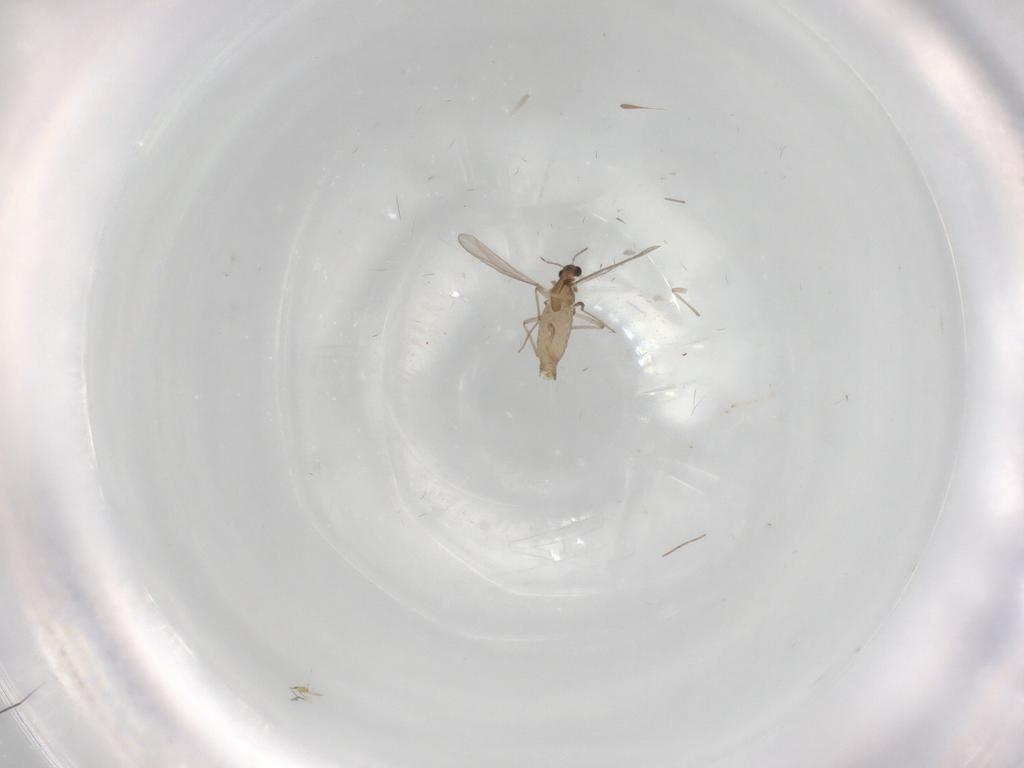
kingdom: Animalia
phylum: Arthropoda
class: Insecta
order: Diptera
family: Chironomidae
